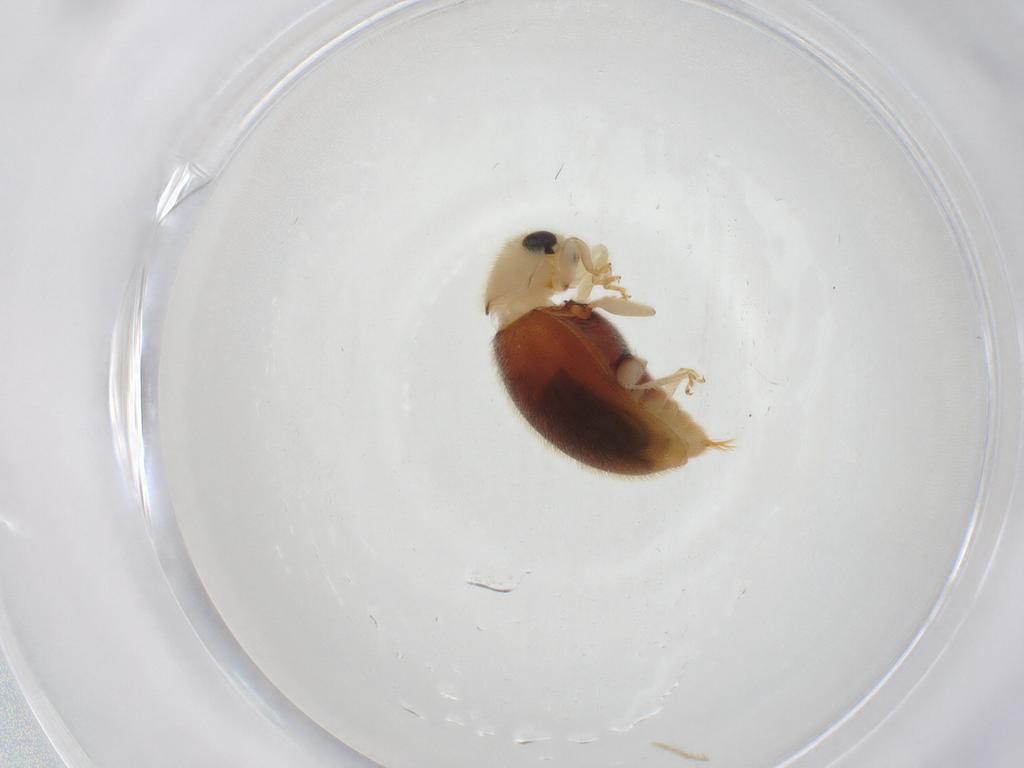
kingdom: Animalia
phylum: Arthropoda
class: Insecta
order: Coleoptera
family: Coccinellidae
